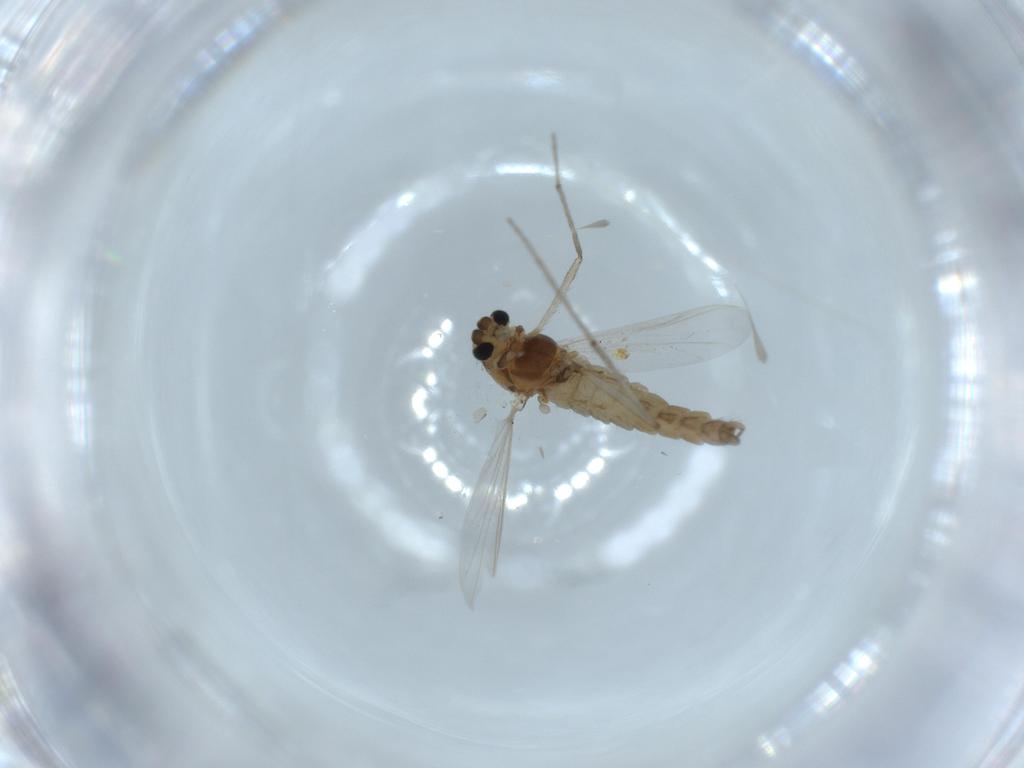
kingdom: Animalia
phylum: Arthropoda
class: Insecta
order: Diptera
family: Chironomidae
